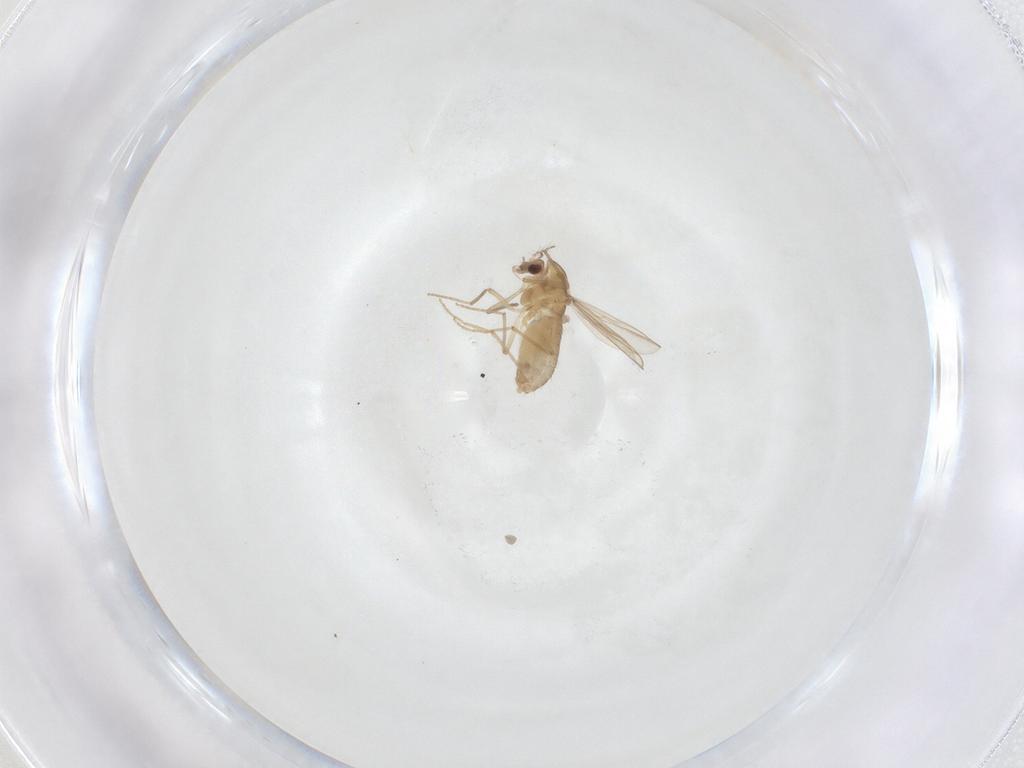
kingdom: Animalia
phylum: Arthropoda
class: Insecta
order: Diptera
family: Chironomidae
